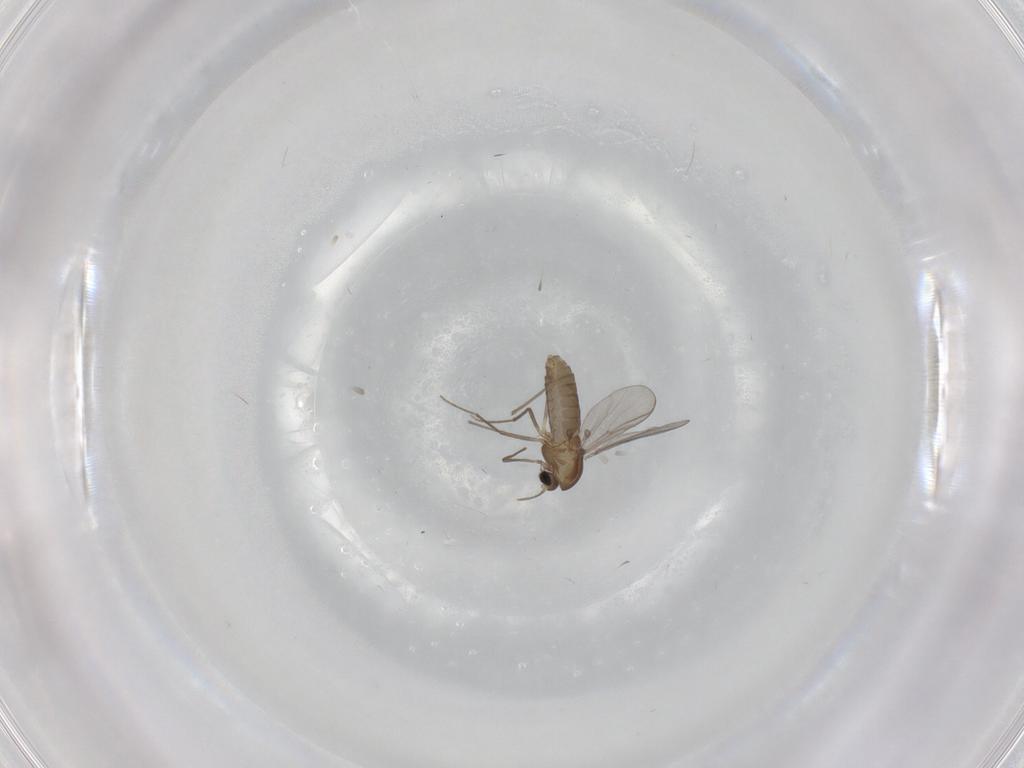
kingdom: Animalia
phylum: Arthropoda
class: Insecta
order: Diptera
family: Chironomidae
